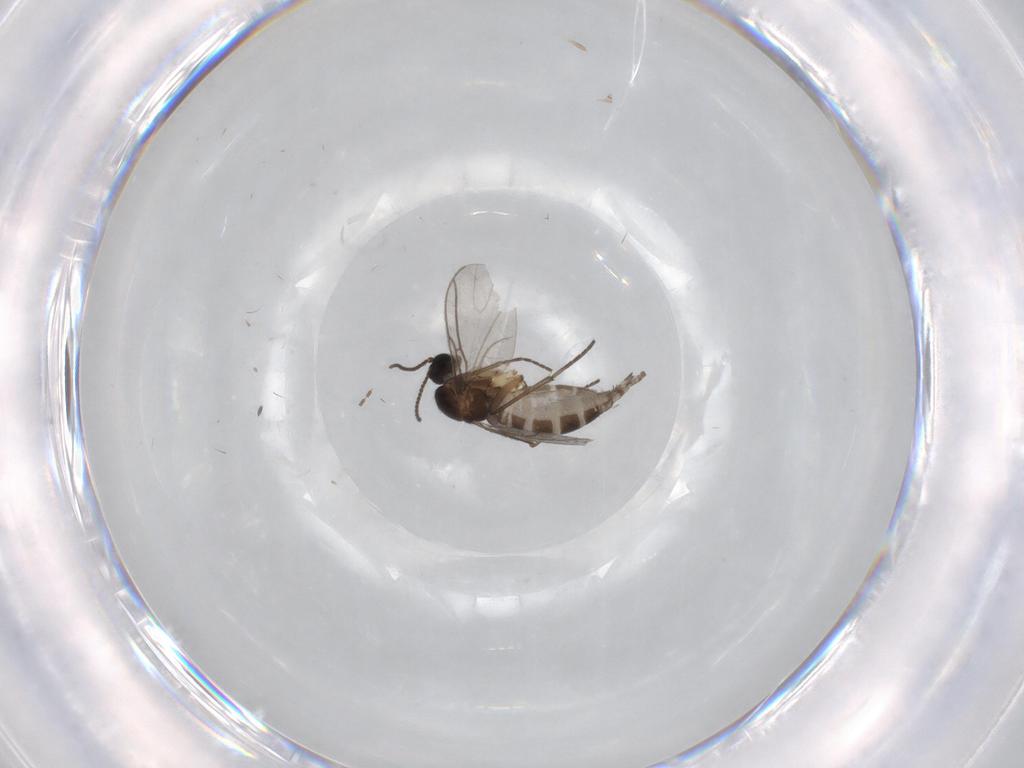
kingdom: Animalia
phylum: Arthropoda
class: Insecta
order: Diptera
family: Sciaridae
